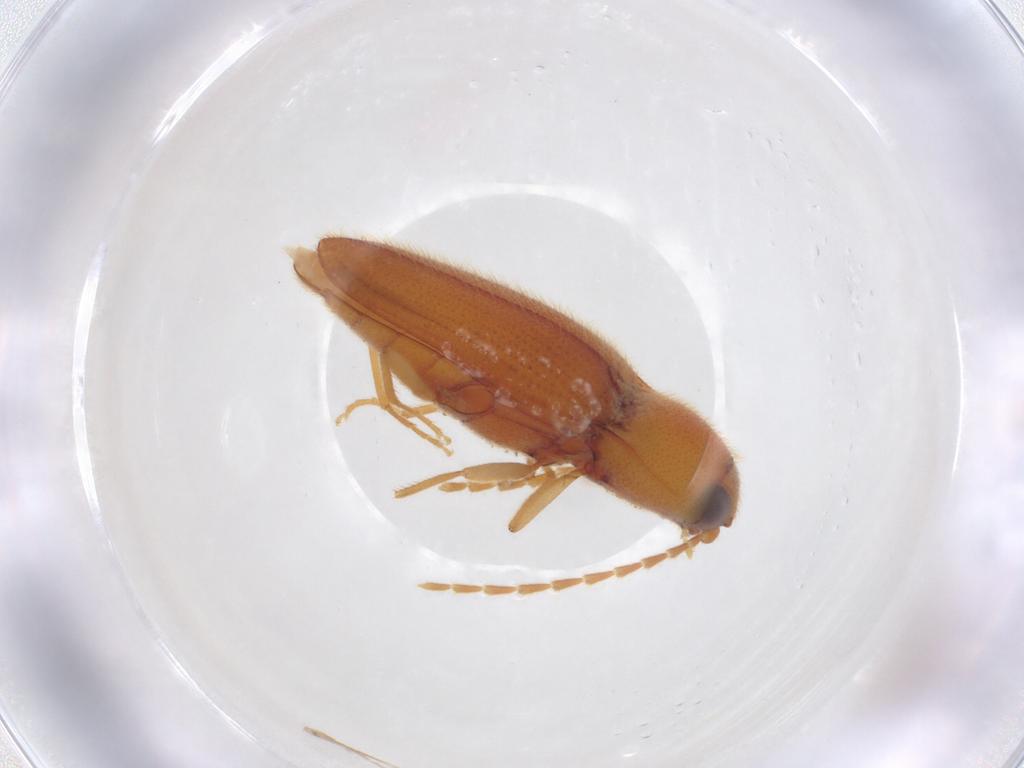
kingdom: Animalia
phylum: Arthropoda
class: Insecta
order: Coleoptera
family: Elateridae
